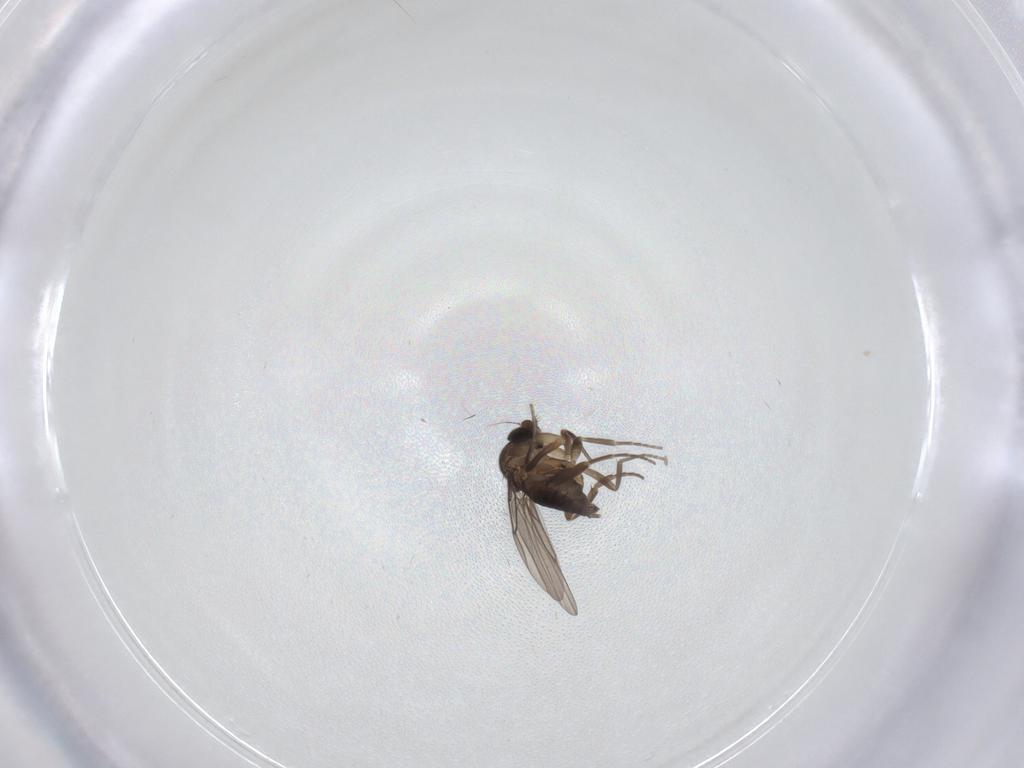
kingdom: Animalia
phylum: Arthropoda
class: Insecta
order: Diptera
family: Phoridae
